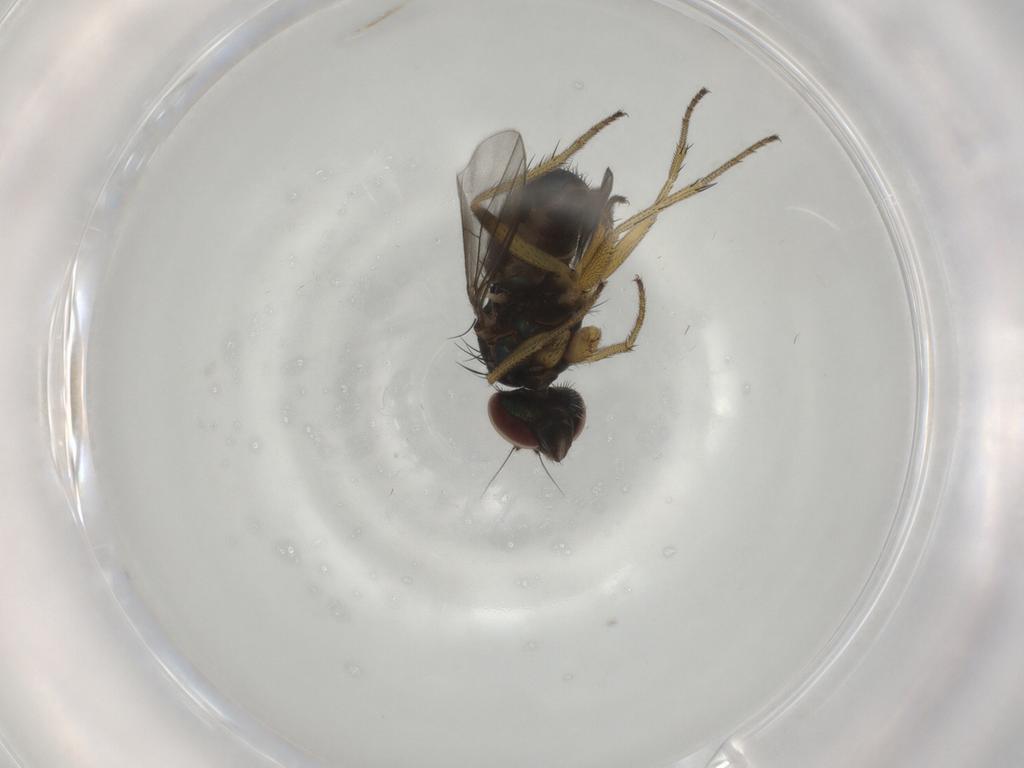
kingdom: Animalia
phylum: Arthropoda
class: Insecta
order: Diptera
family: Dolichopodidae
